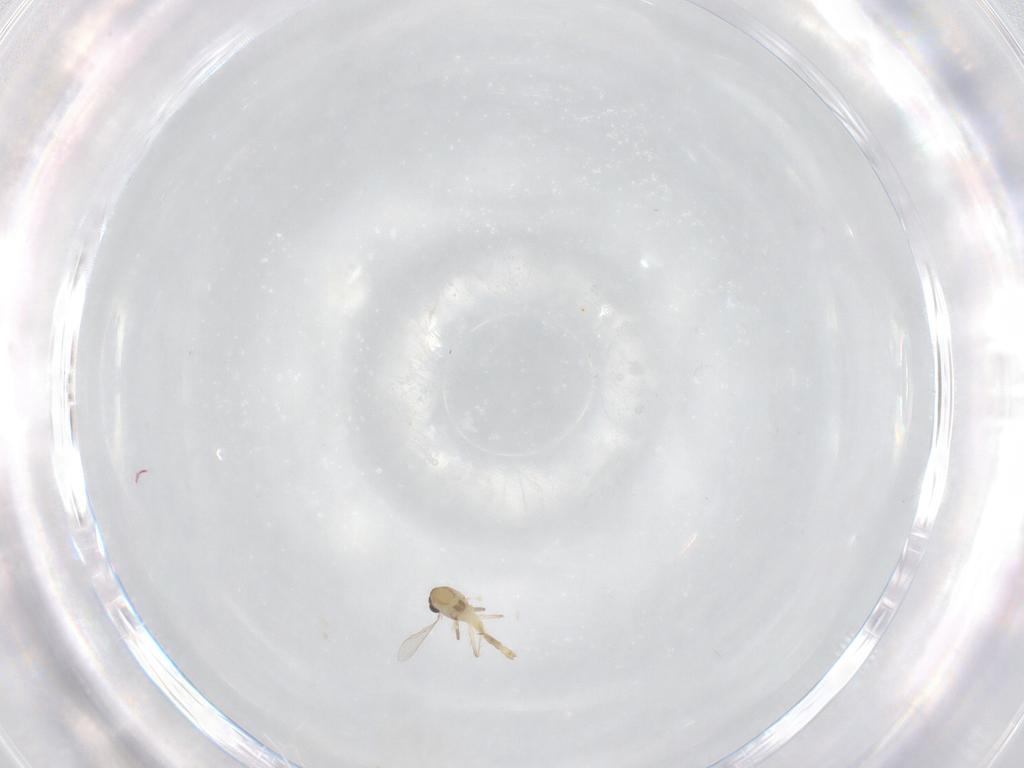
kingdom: Animalia
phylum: Arthropoda
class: Insecta
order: Diptera
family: Chironomidae
